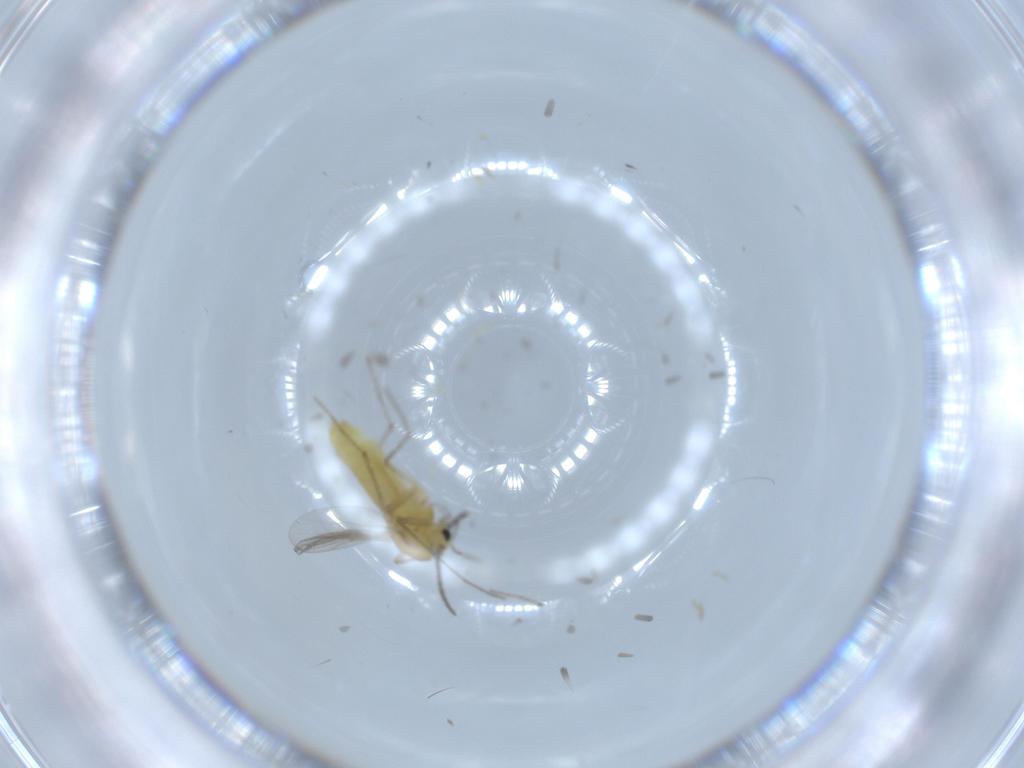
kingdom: Animalia
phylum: Arthropoda
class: Insecta
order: Diptera
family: Chironomidae
